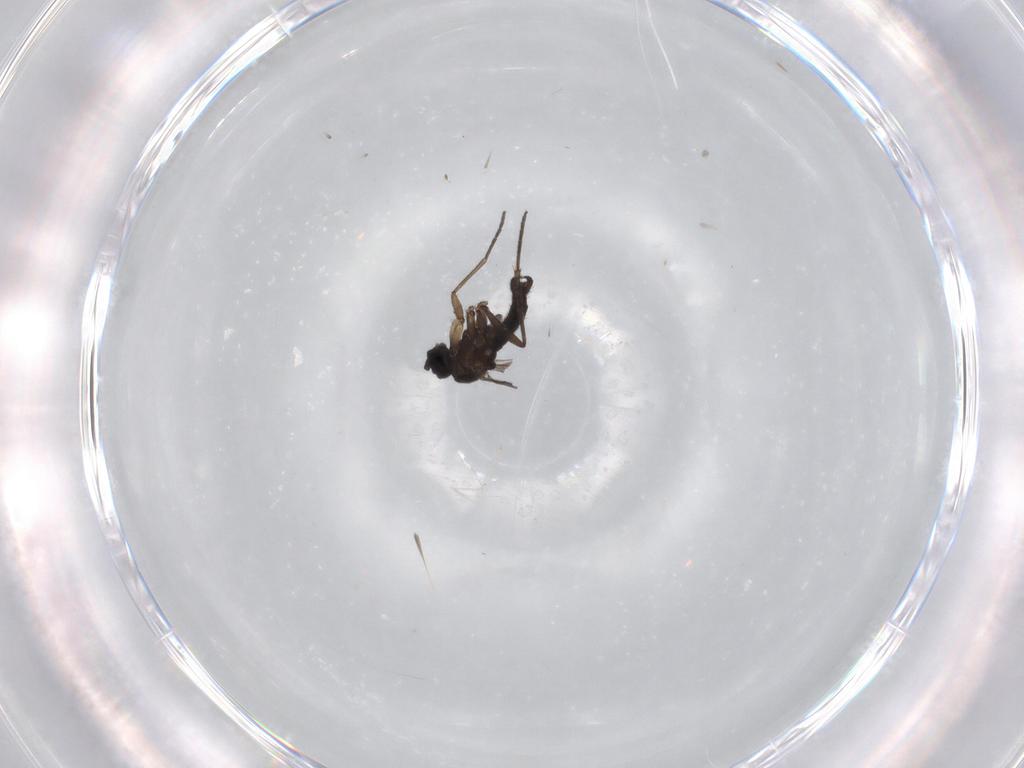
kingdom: Animalia
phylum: Arthropoda
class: Insecta
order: Diptera
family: Sciaridae
